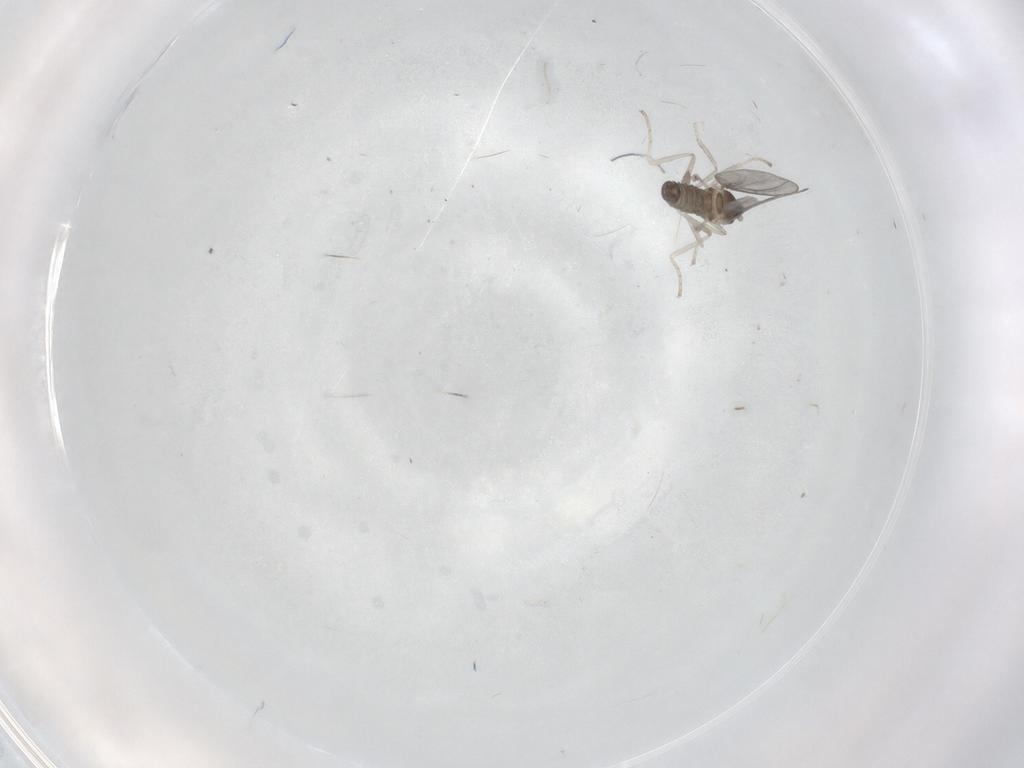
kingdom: Animalia
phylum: Arthropoda
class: Insecta
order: Diptera
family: Cecidomyiidae
